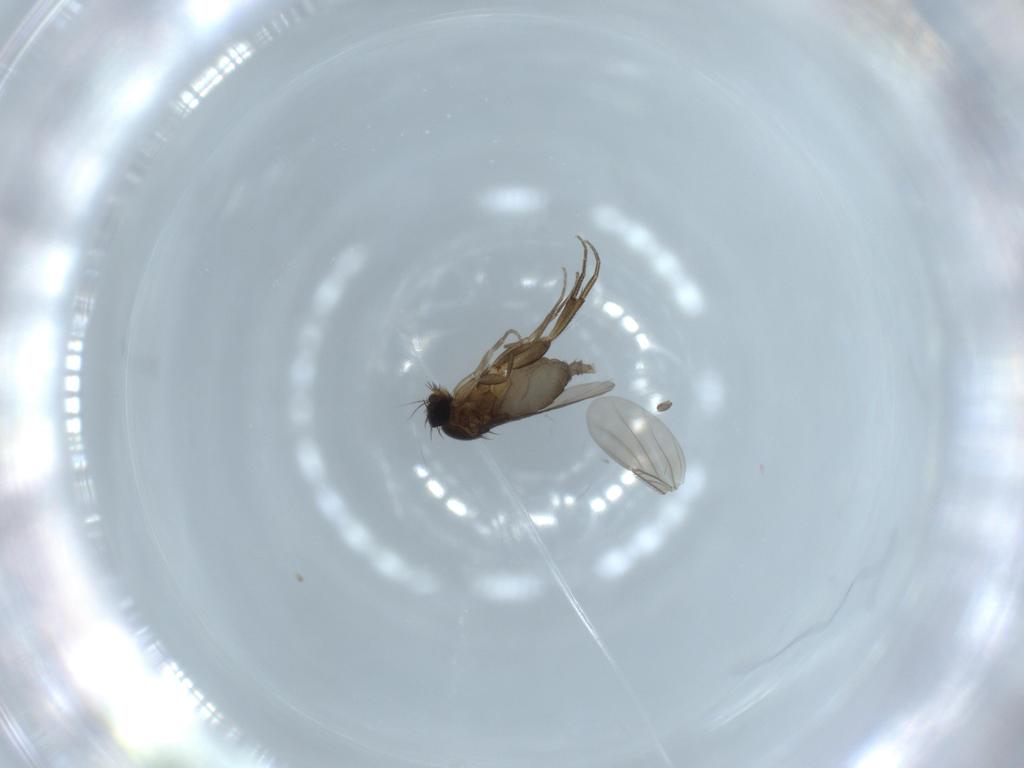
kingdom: Animalia
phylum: Arthropoda
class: Insecta
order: Diptera
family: Phoridae
